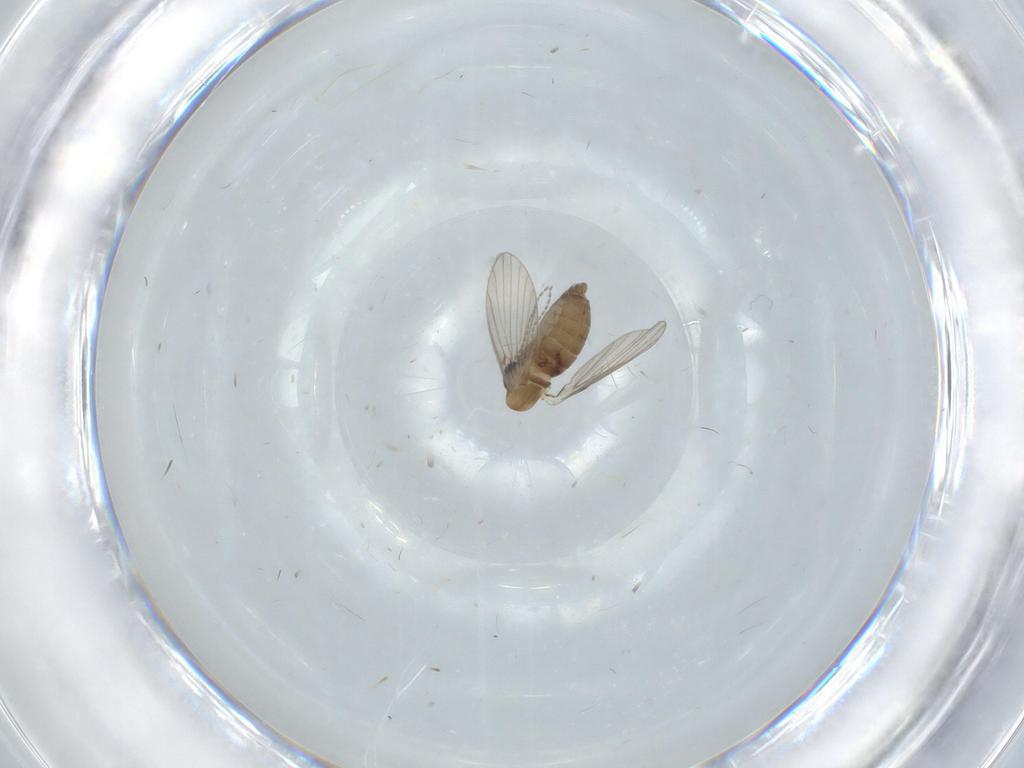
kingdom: Animalia
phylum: Arthropoda
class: Insecta
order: Diptera
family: Psychodidae
